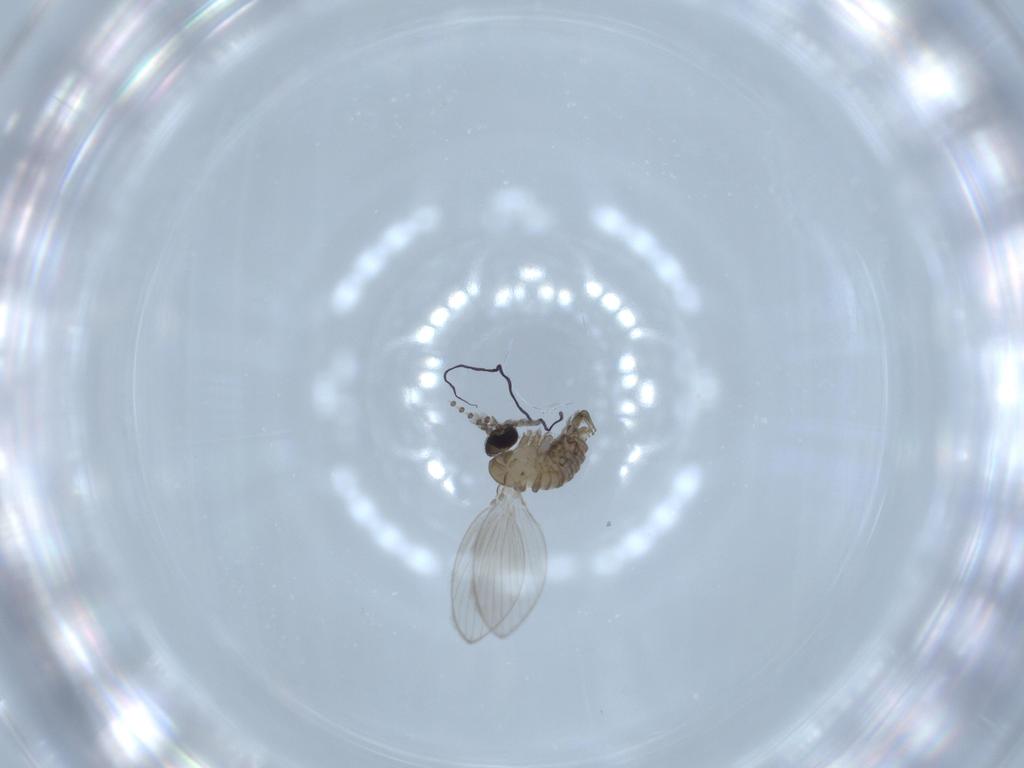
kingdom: Animalia
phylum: Arthropoda
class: Insecta
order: Diptera
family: Psychodidae
